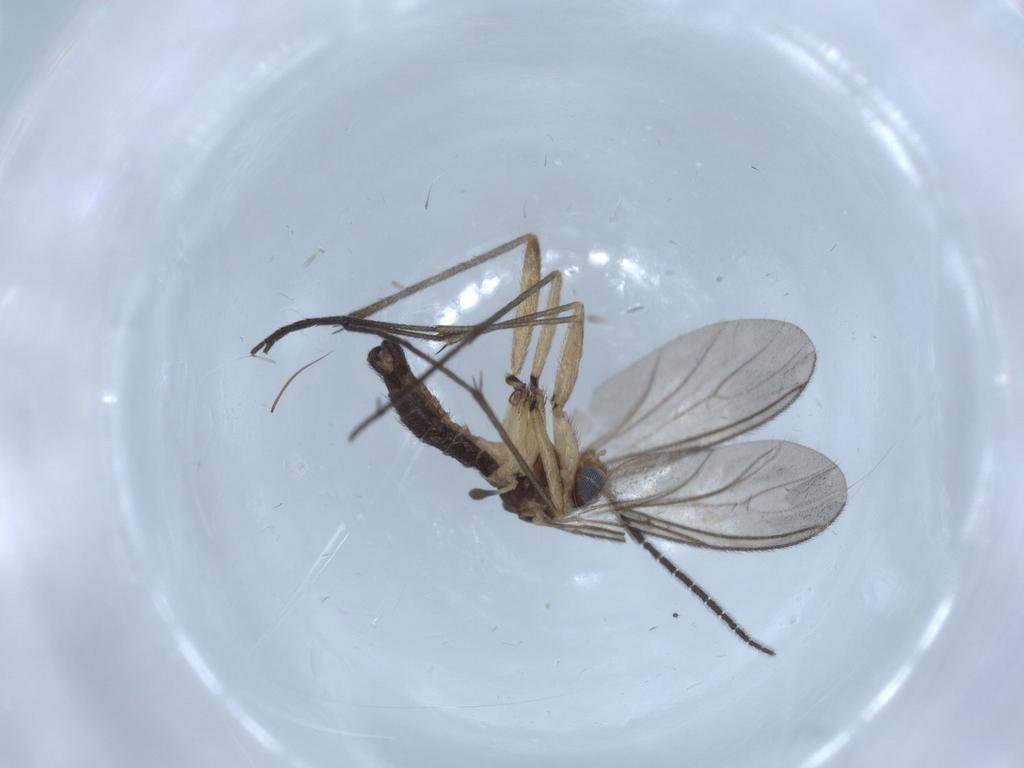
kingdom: Animalia
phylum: Arthropoda
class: Insecta
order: Diptera
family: Sciaridae
